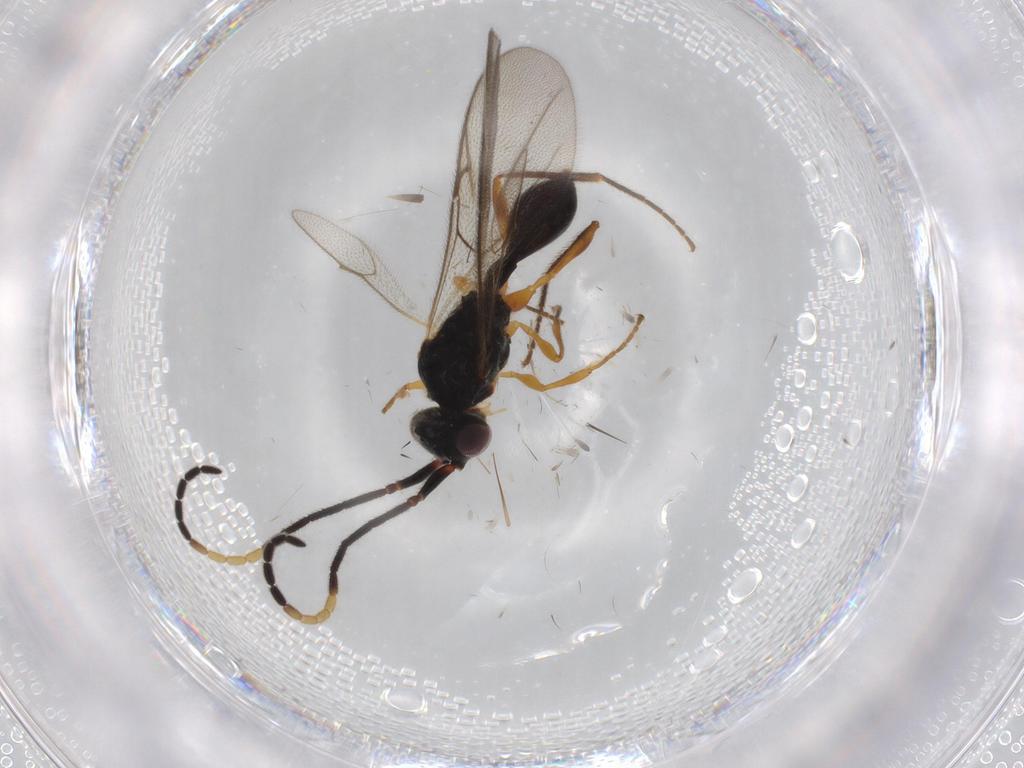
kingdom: Animalia
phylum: Arthropoda
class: Insecta
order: Hymenoptera
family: Diapriidae
